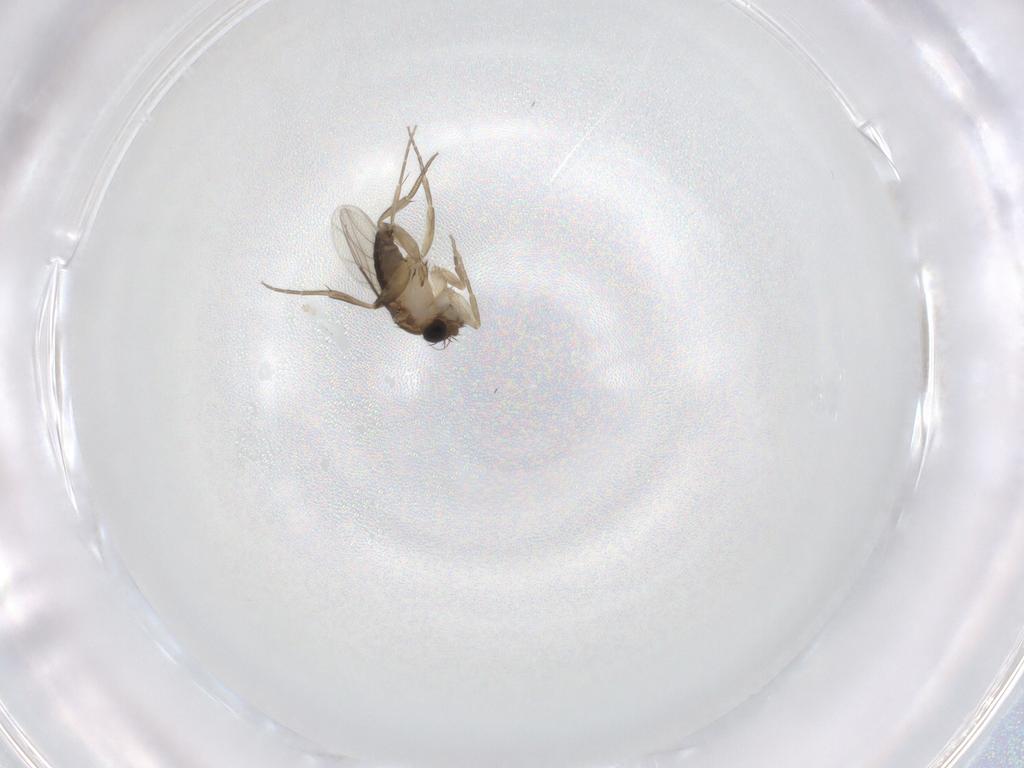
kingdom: Animalia
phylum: Arthropoda
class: Insecta
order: Diptera
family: Phoridae
